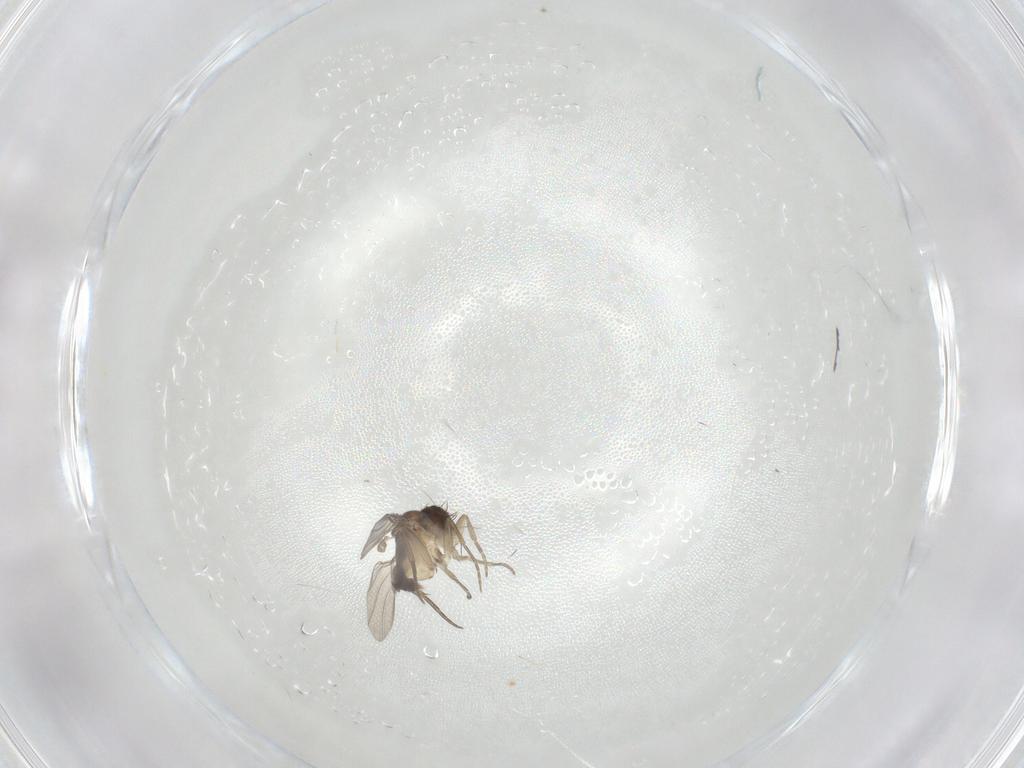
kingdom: Animalia
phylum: Arthropoda
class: Insecta
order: Diptera
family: Phoridae
